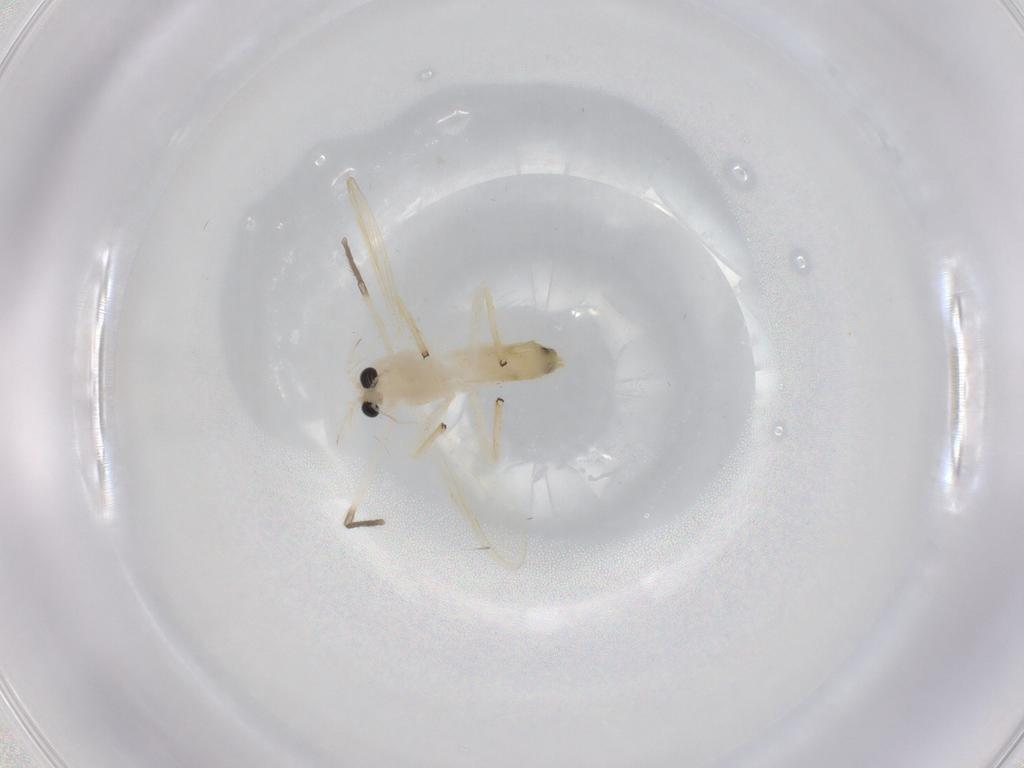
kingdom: Animalia
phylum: Arthropoda
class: Insecta
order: Diptera
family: Chironomidae
